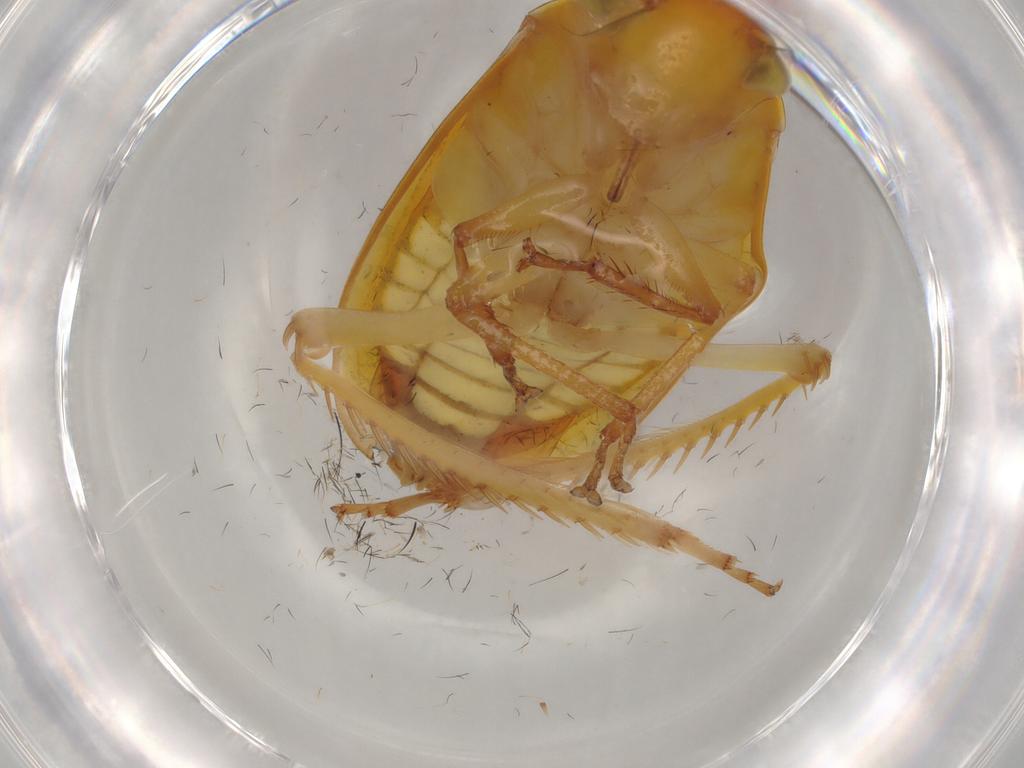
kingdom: Animalia
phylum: Arthropoda
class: Insecta
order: Hemiptera
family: Cicadellidae
